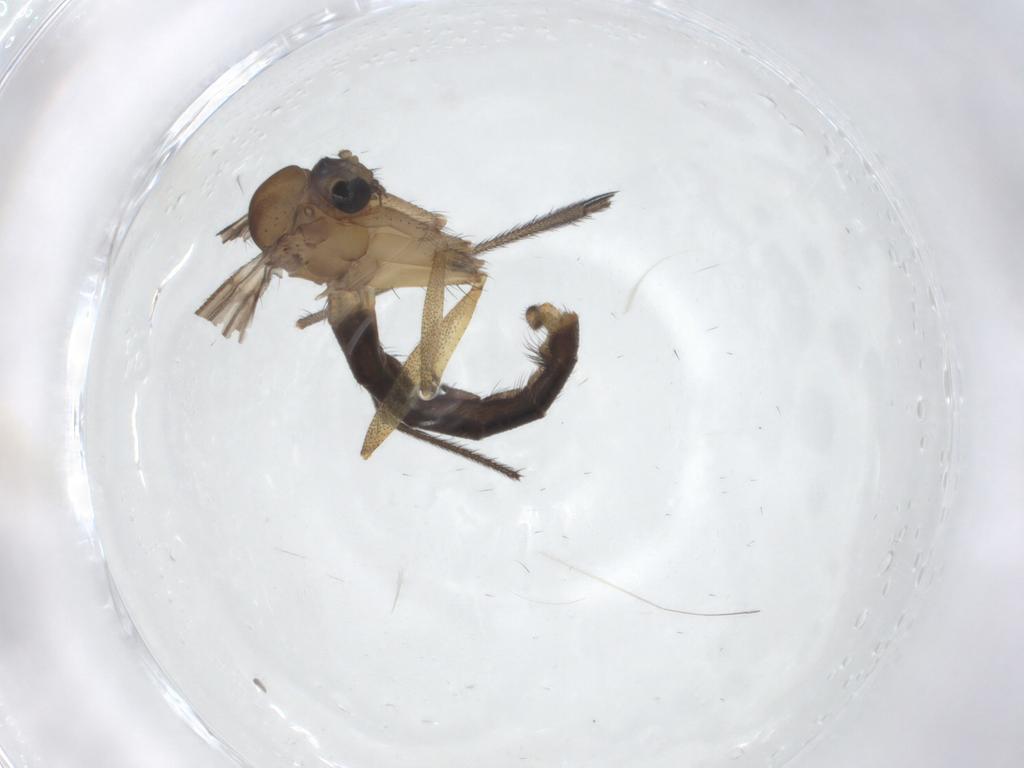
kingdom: Animalia
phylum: Arthropoda
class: Insecta
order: Diptera
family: Ditomyiidae
